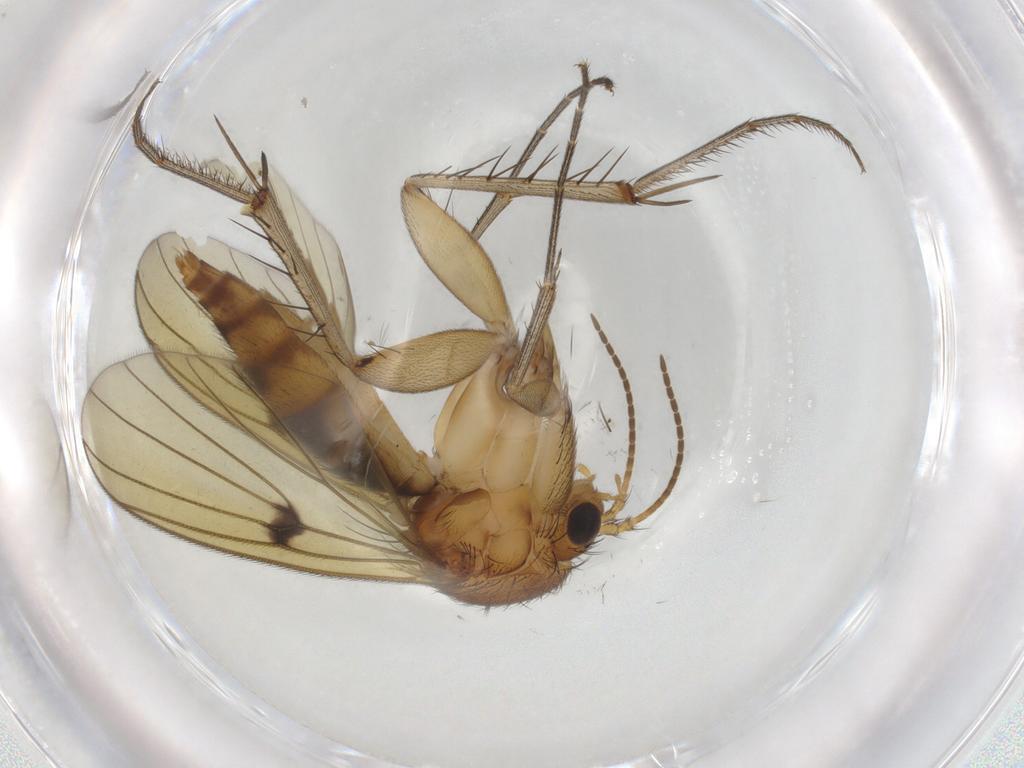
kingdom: Animalia
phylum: Arthropoda
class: Insecta
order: Diptera
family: Mycetophilidae
